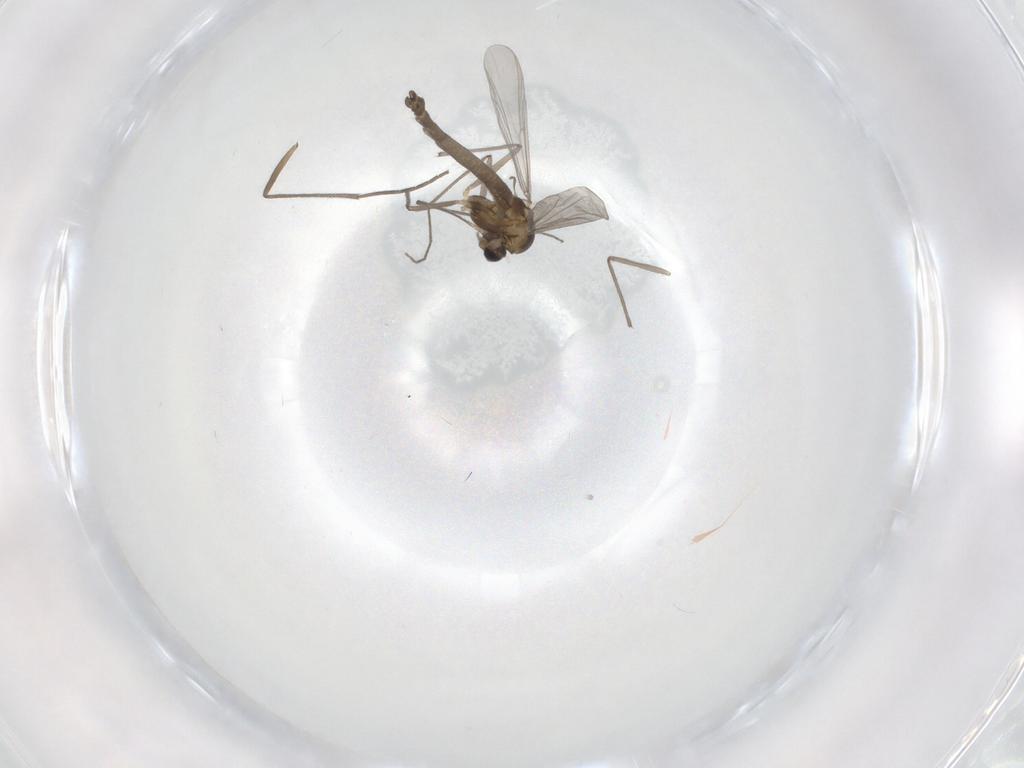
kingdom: Animalia
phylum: Arthropoda
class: Insecta
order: Diptera
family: Chironomidae
